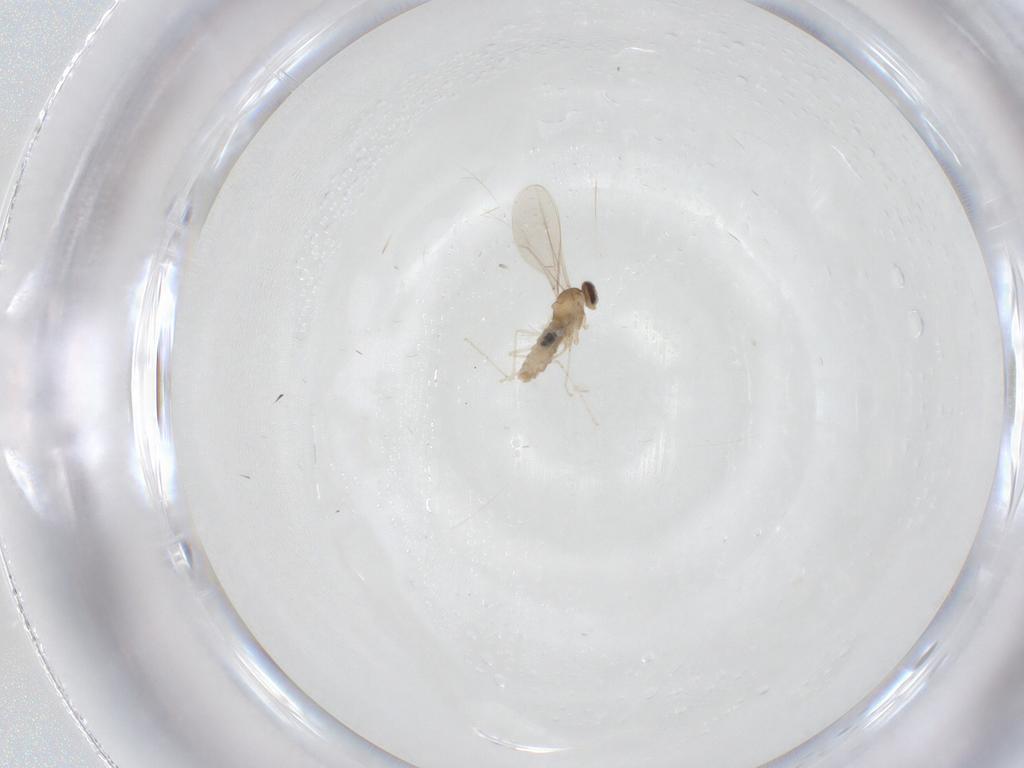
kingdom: Animalia
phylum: Arthropoda
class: Insecta
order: Diptera
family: Cecidomyiidae
